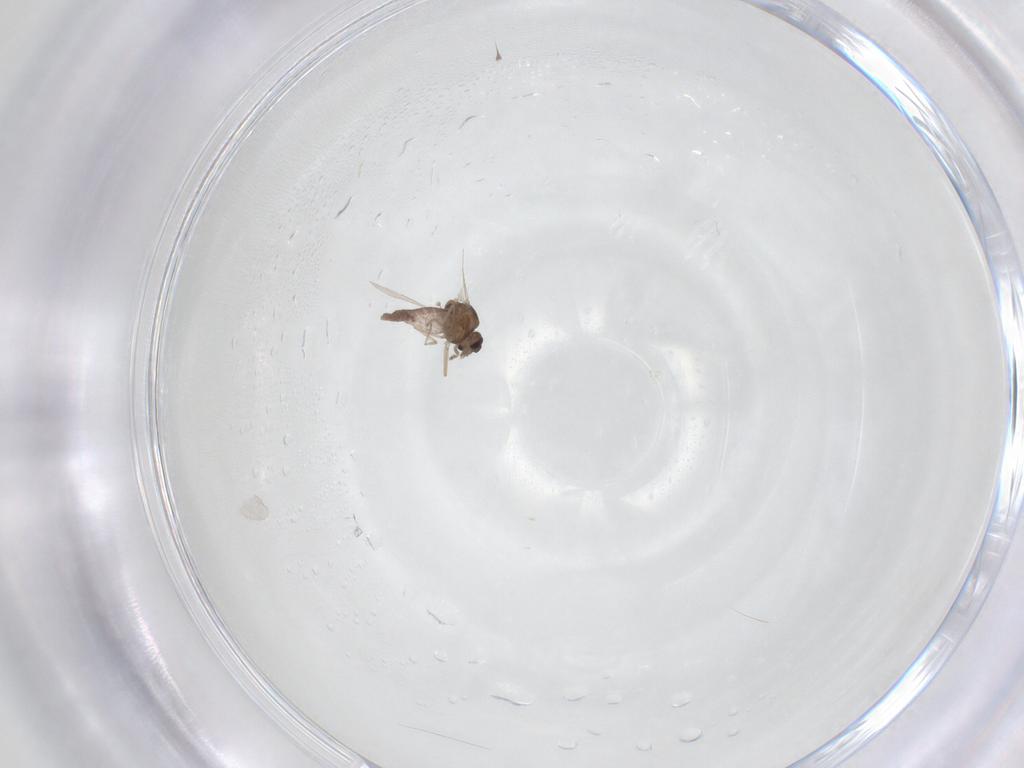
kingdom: Animalia
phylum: Arthropoda
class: Insecta
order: Diptera
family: Ceratopogonidae
